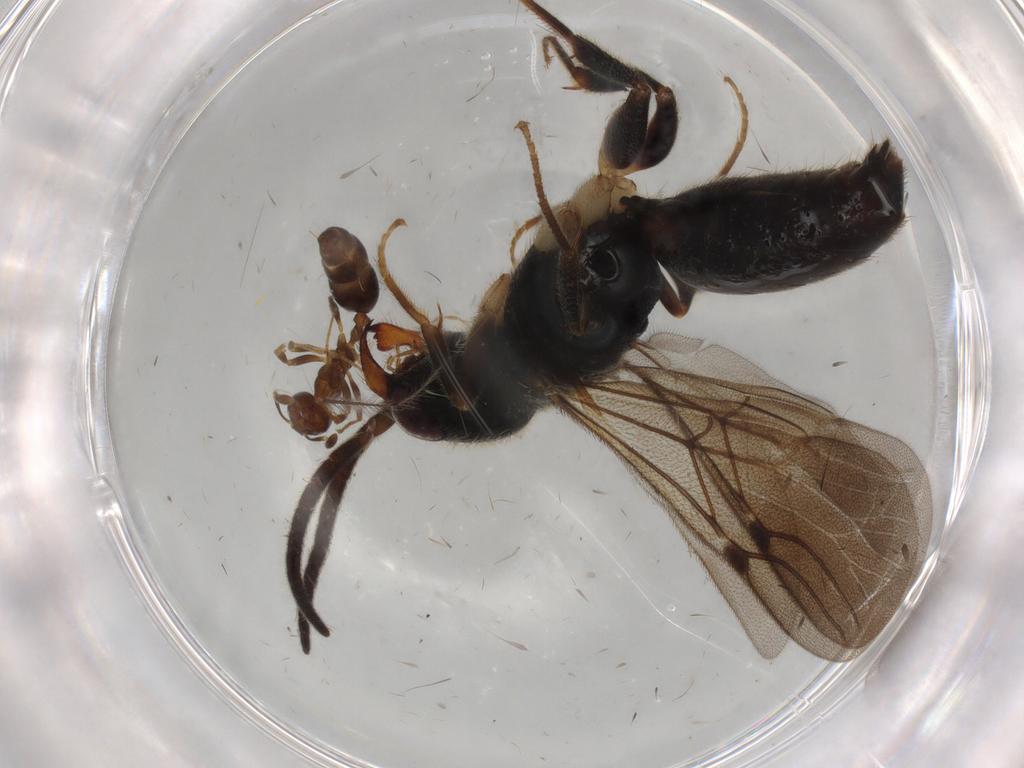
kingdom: Animalia
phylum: Arthropoda
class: Insecta
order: Hymenoptera
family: Bethylidae
